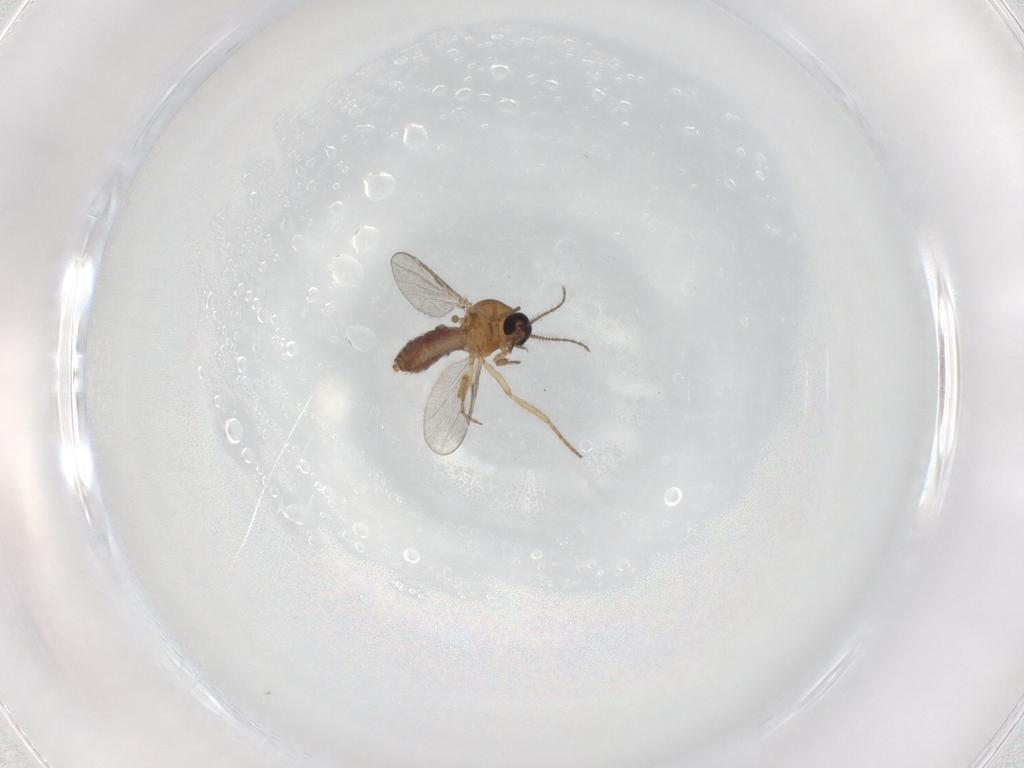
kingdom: Animalia
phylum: Arthropoda
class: Insecta
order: Diptera
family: Ceratopogonidae
